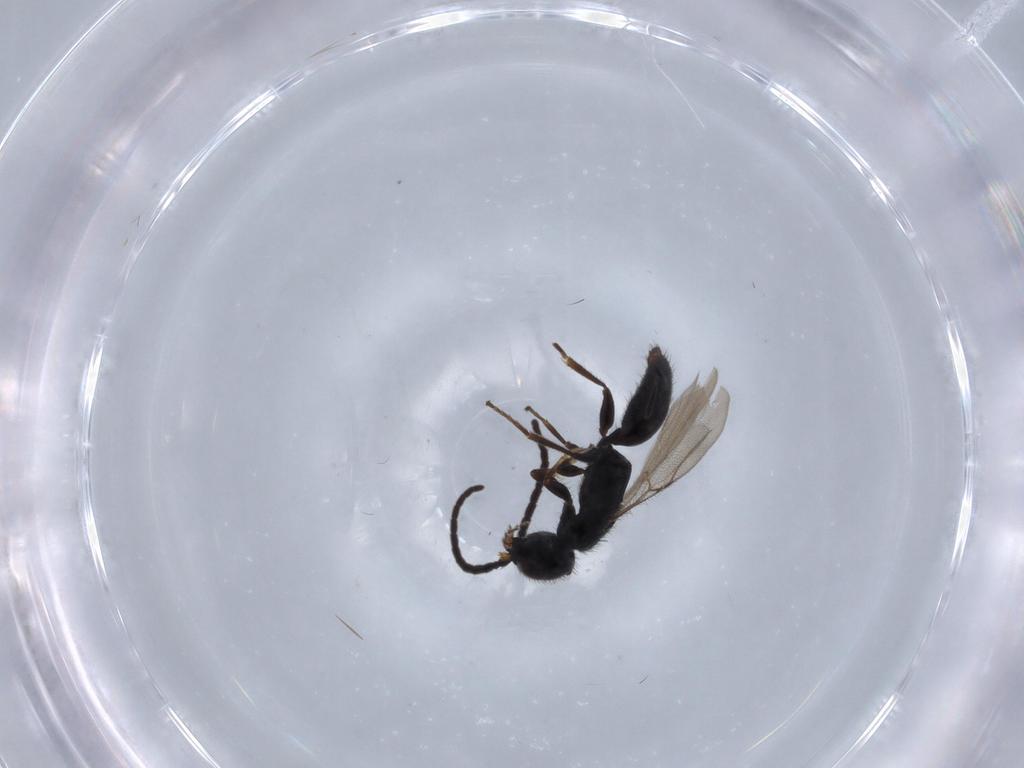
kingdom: Animalia
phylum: Arthropoda
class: Insecta
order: Hymenoptera
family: Bethylidae
